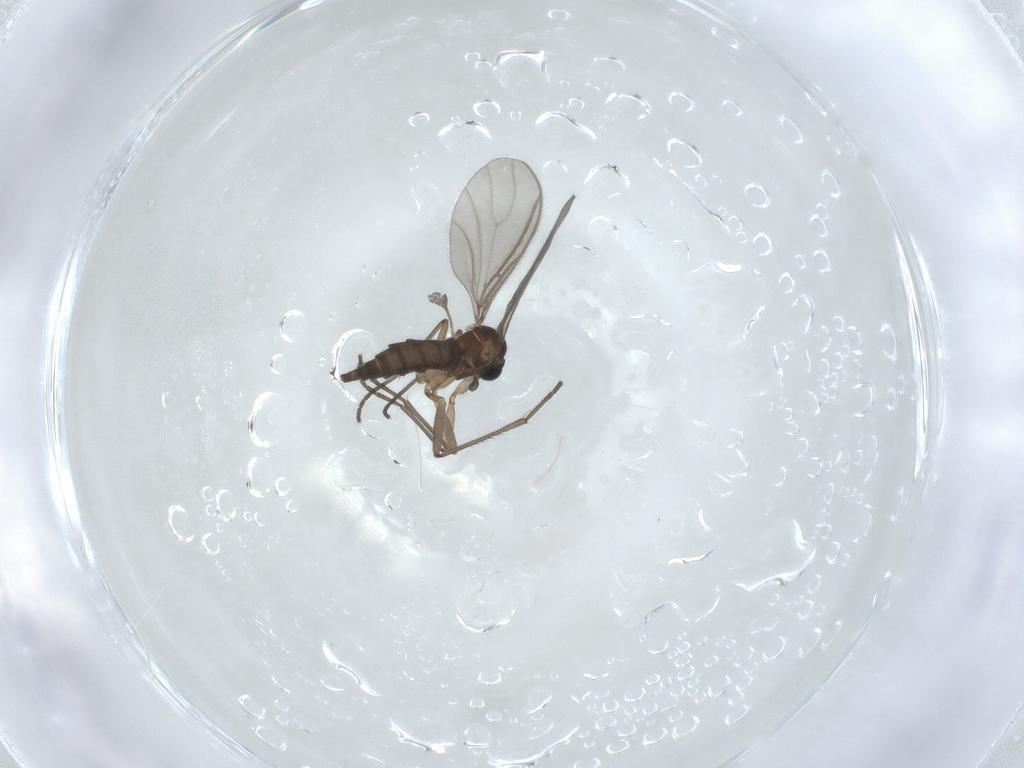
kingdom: Animalia
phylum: Arthropoda
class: Insecta
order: Diptera
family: Sciaridae
